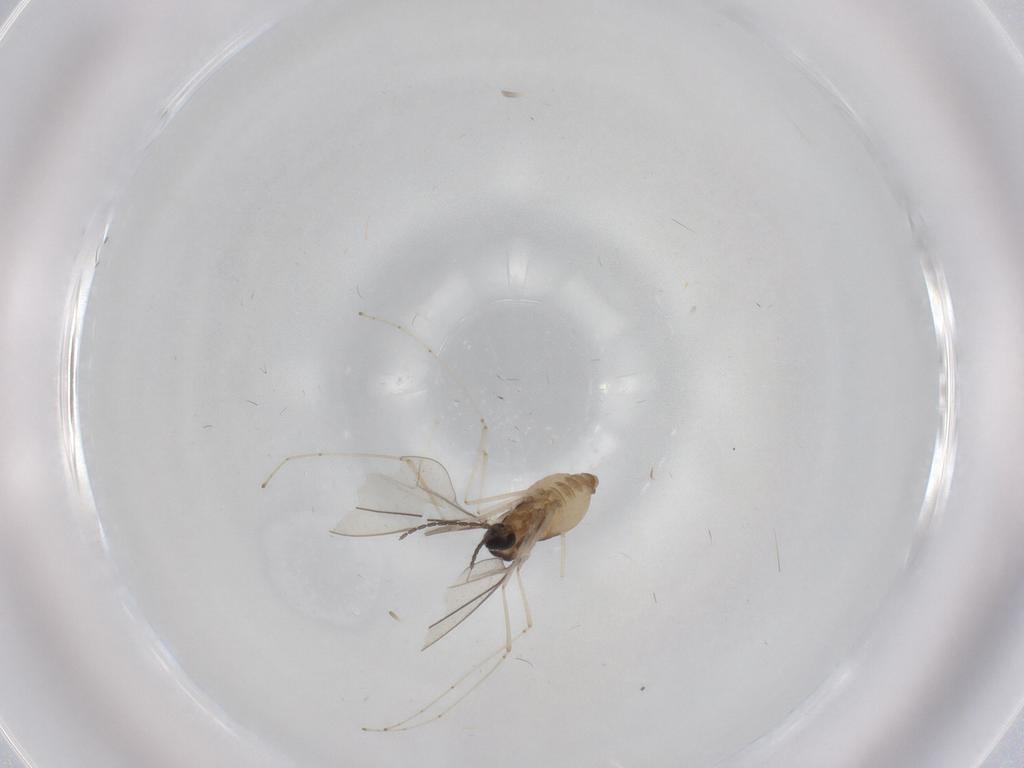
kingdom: Animalia
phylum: Arthropoda
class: Insecta
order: Diptera
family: Cecidomyiidae
